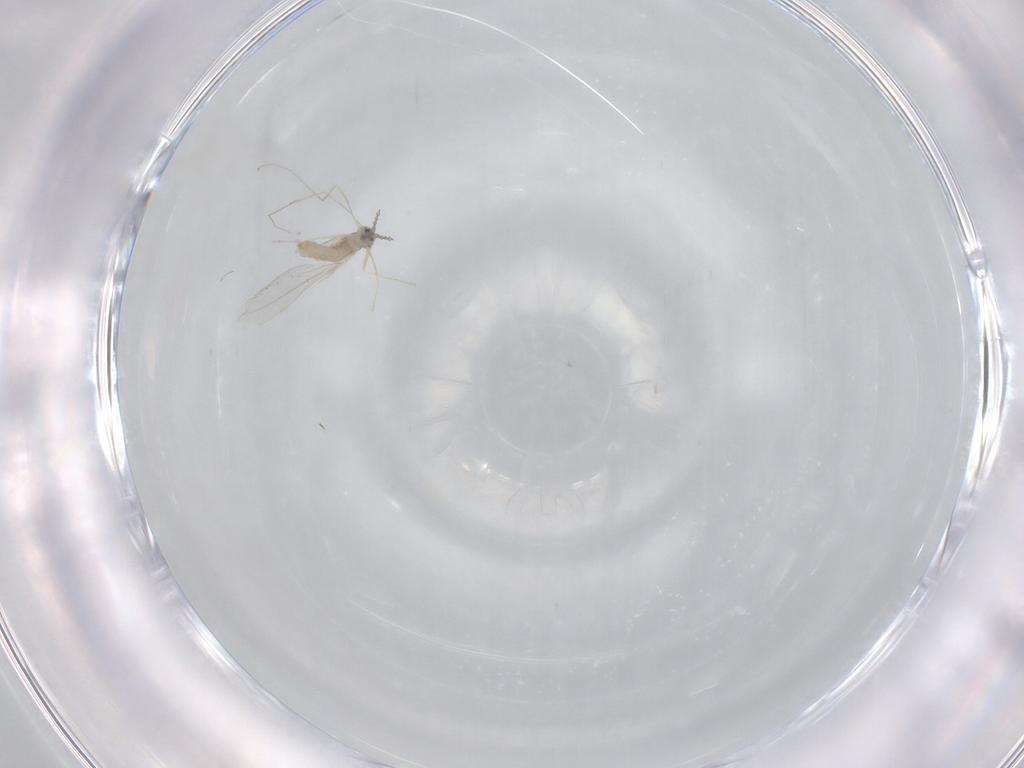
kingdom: Animalia
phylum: Arthropoda
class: Insecta
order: Diptera
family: Cecidomyiidae
